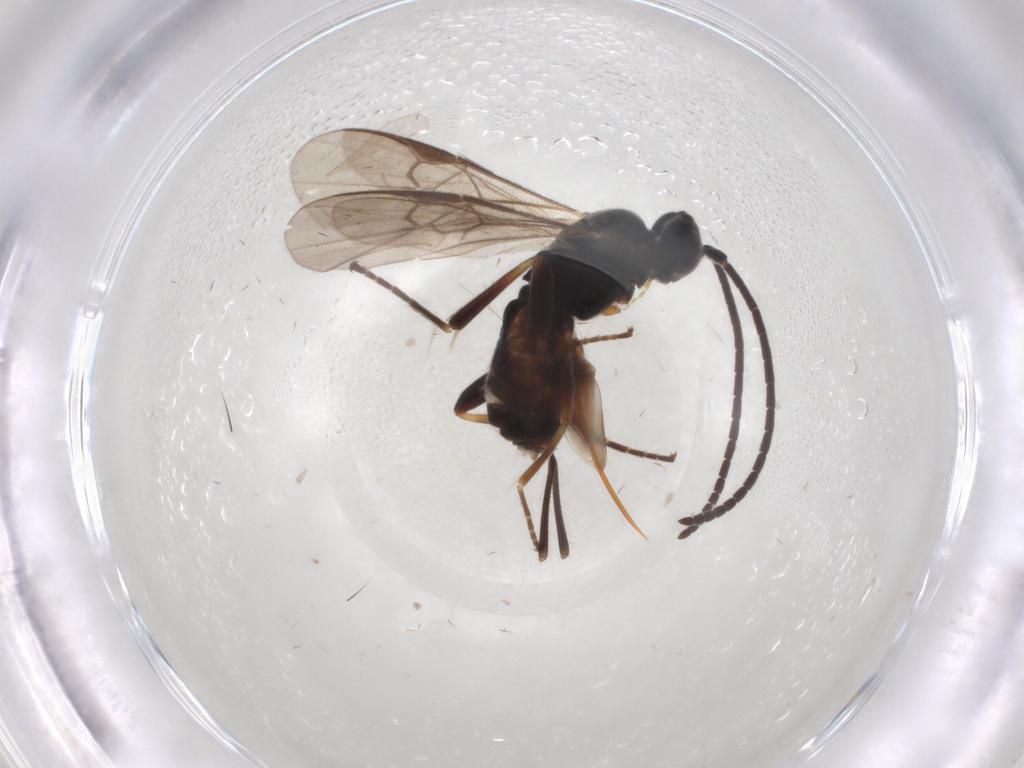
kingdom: Animalia
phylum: Arthropoda
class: Insecta
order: Hymenoptera
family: Braconidae
